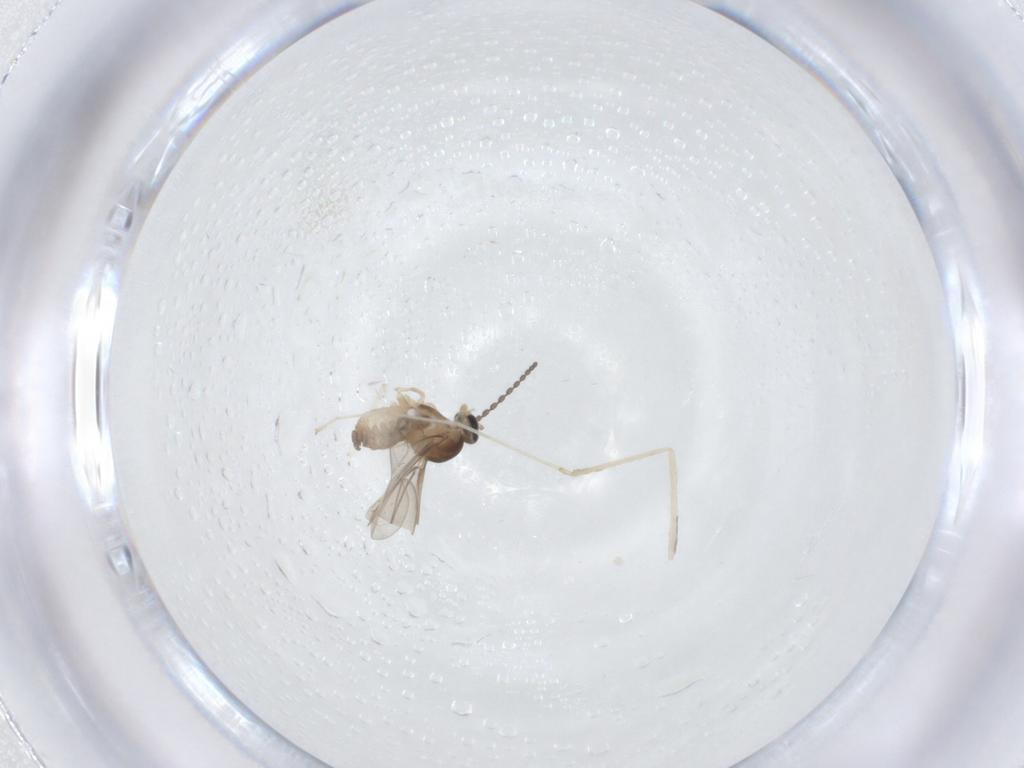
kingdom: Animalia
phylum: Arthropoda
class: Insecta
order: Diptera
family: Cecidomyiidae
